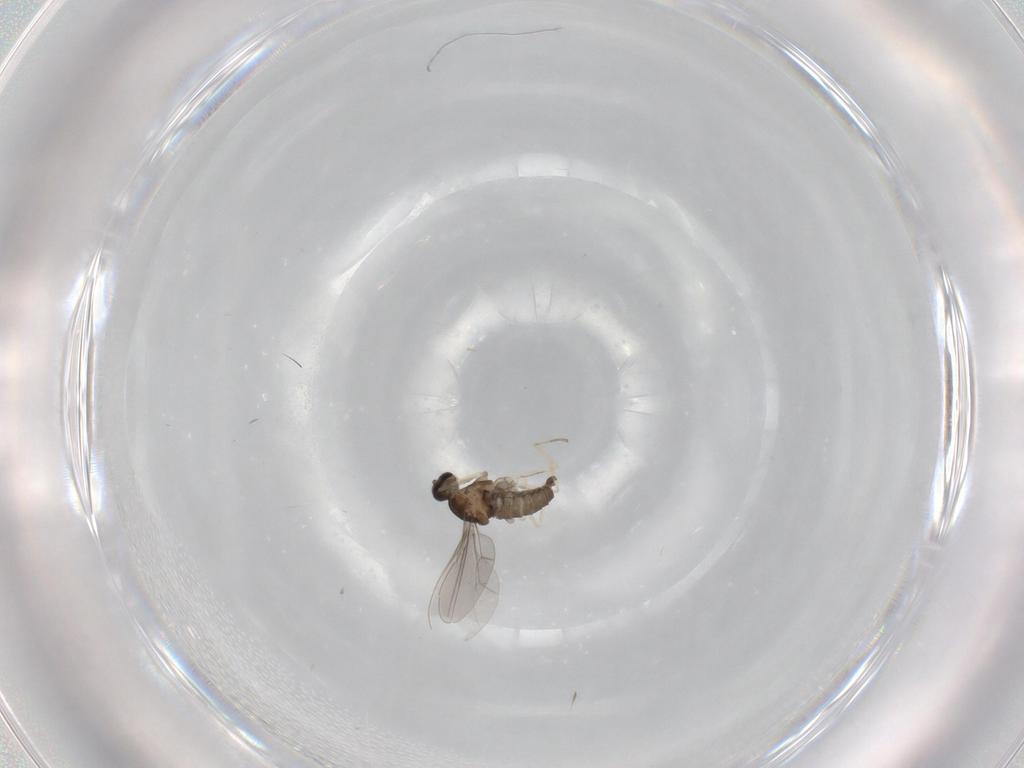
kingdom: Animalia
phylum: Arthropoda
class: Insecta
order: Diptera
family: Cecidomyiidae
